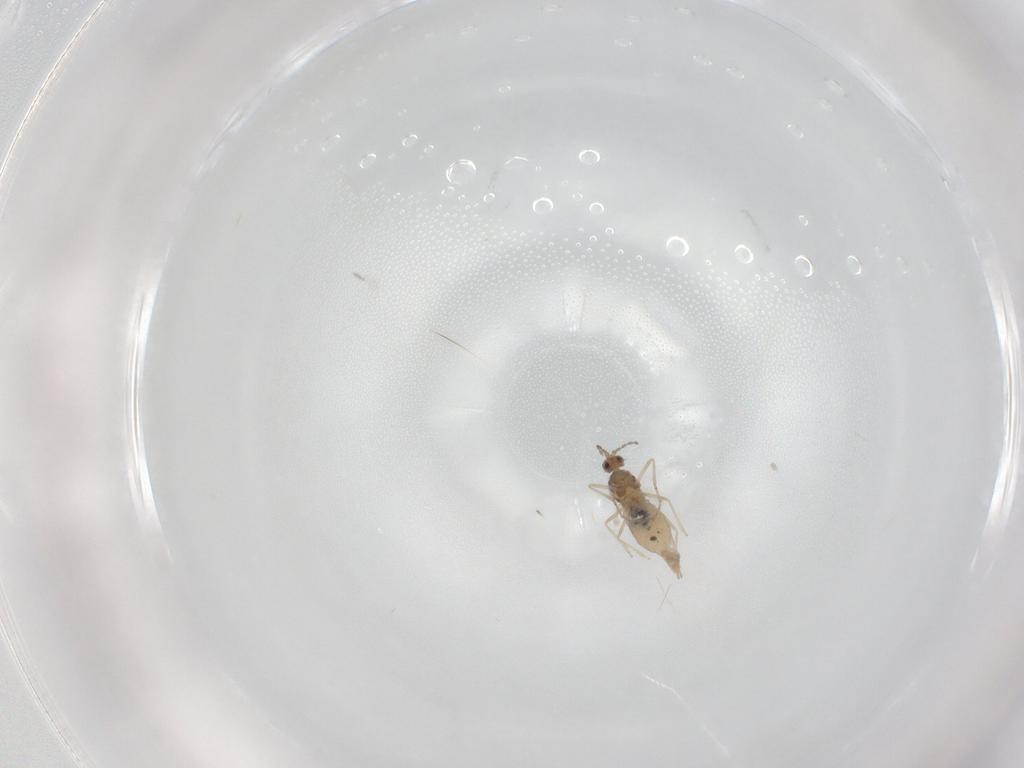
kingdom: Animalia
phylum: Arthropoda
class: Insecta
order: Diptera
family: Cecidomyiidae
